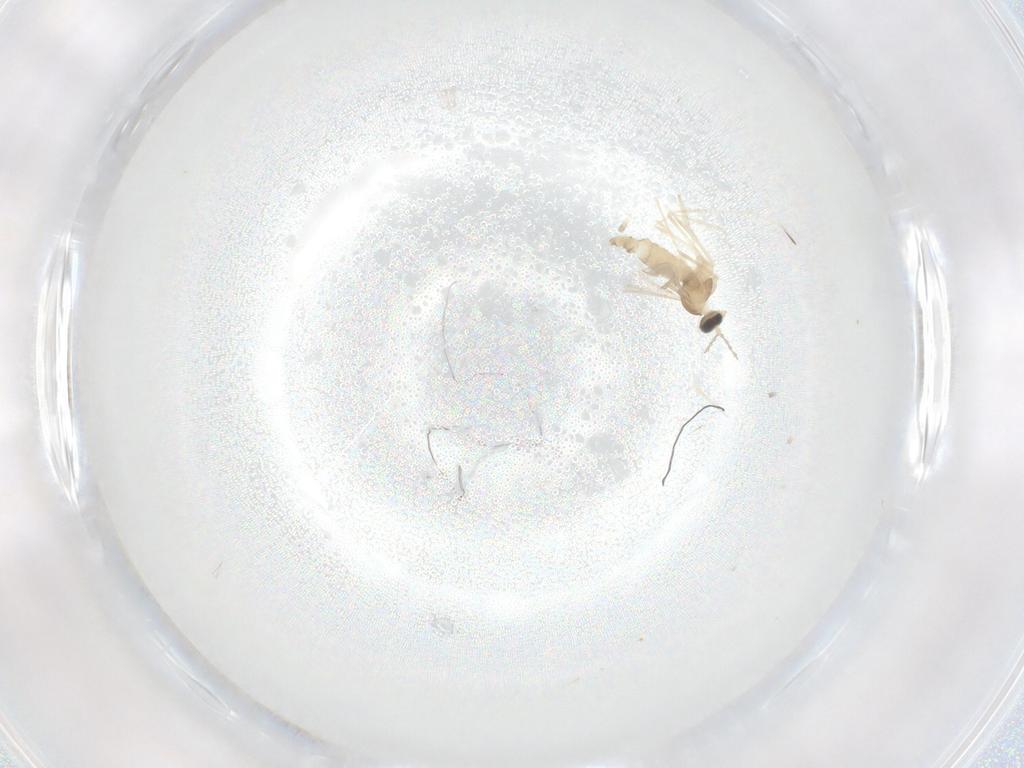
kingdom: Animalia
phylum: Arthropoda
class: Insecta
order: Diptera
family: Cecidomyiidae
